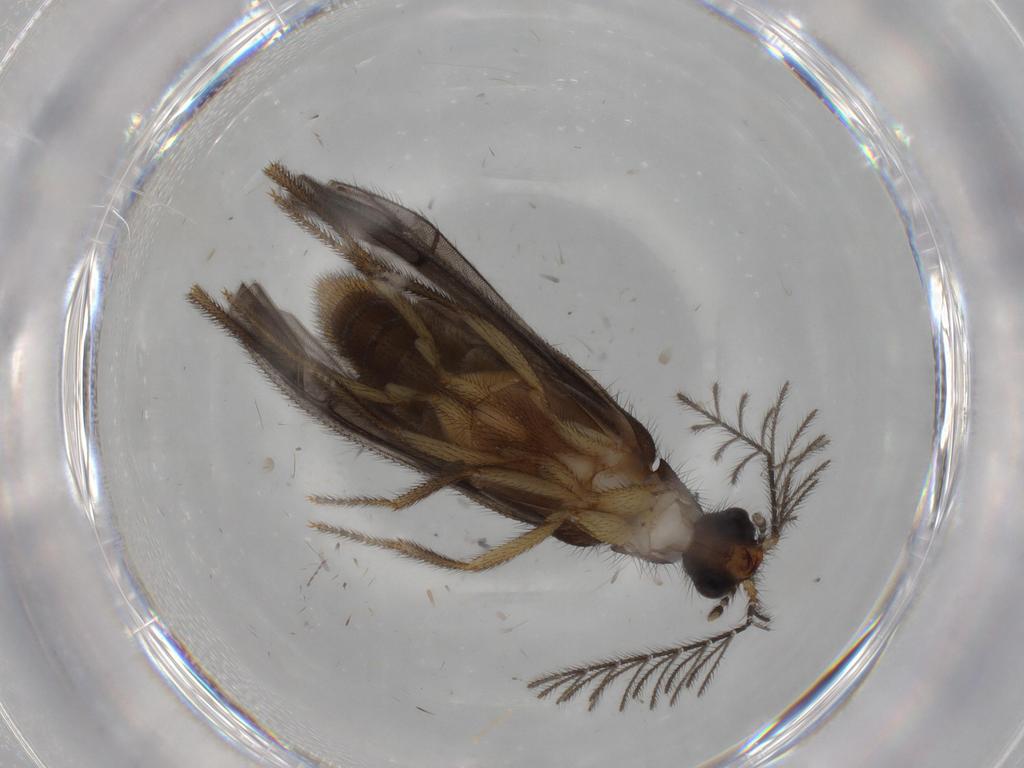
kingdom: Animalia
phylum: Arthropoda
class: Insecta
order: Coleoptera
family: Phengodidae
